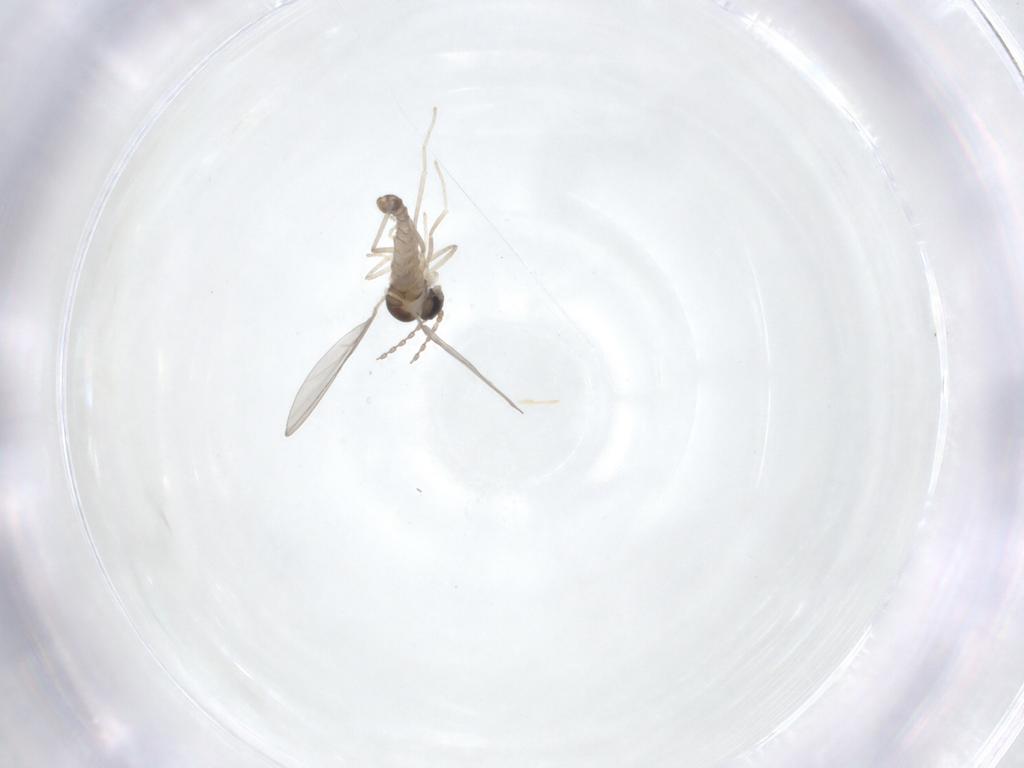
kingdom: Animalia
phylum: Arthropoda
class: Insecta
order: Diptera
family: Cecidomyiidae
